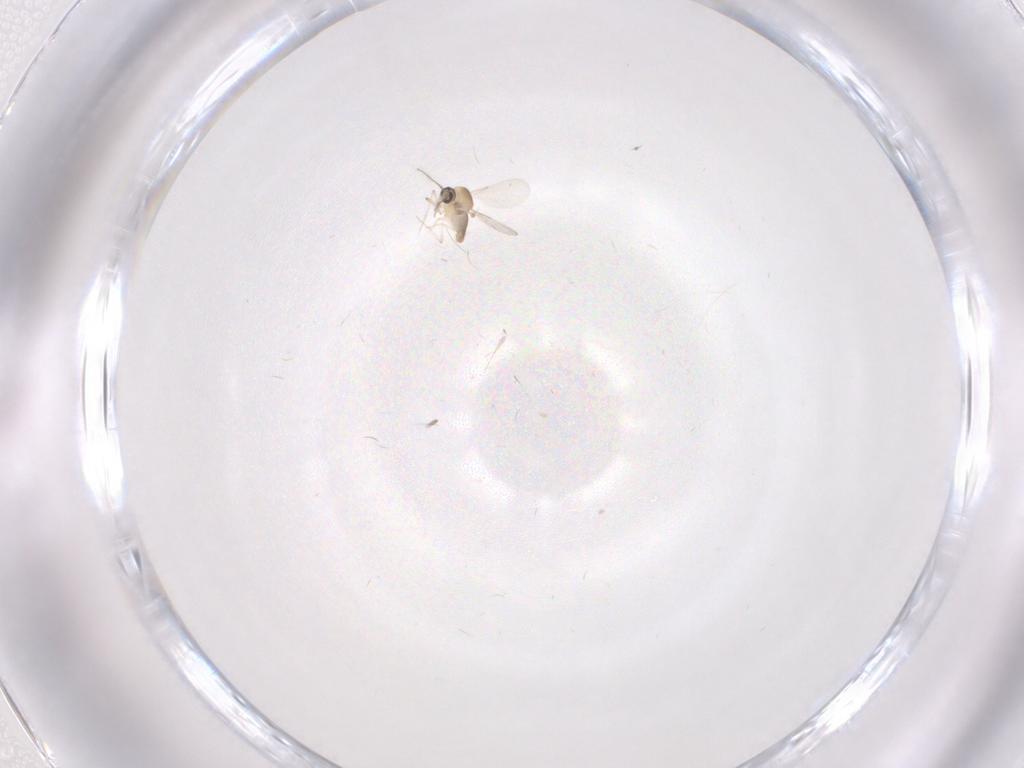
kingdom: Animalia
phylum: Arthropoda
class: Insecta
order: Diptera
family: Ceratopogonidae
